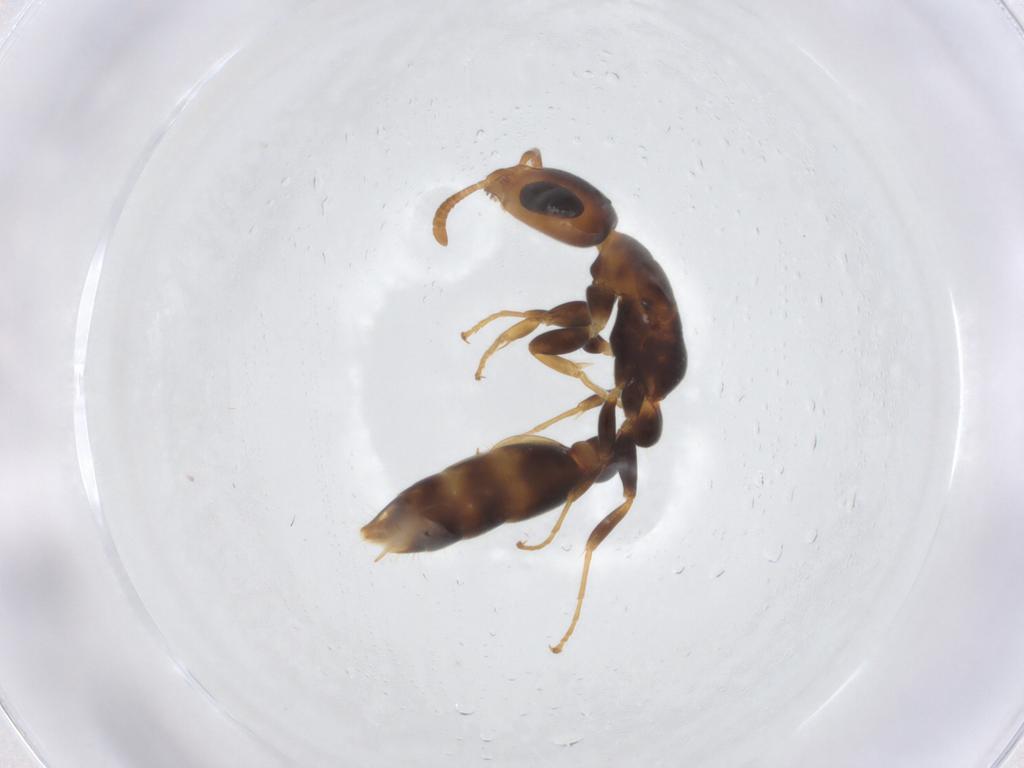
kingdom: Animalia
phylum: Arthropoda
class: Insecta
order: Hymenoptera
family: Formicidae
